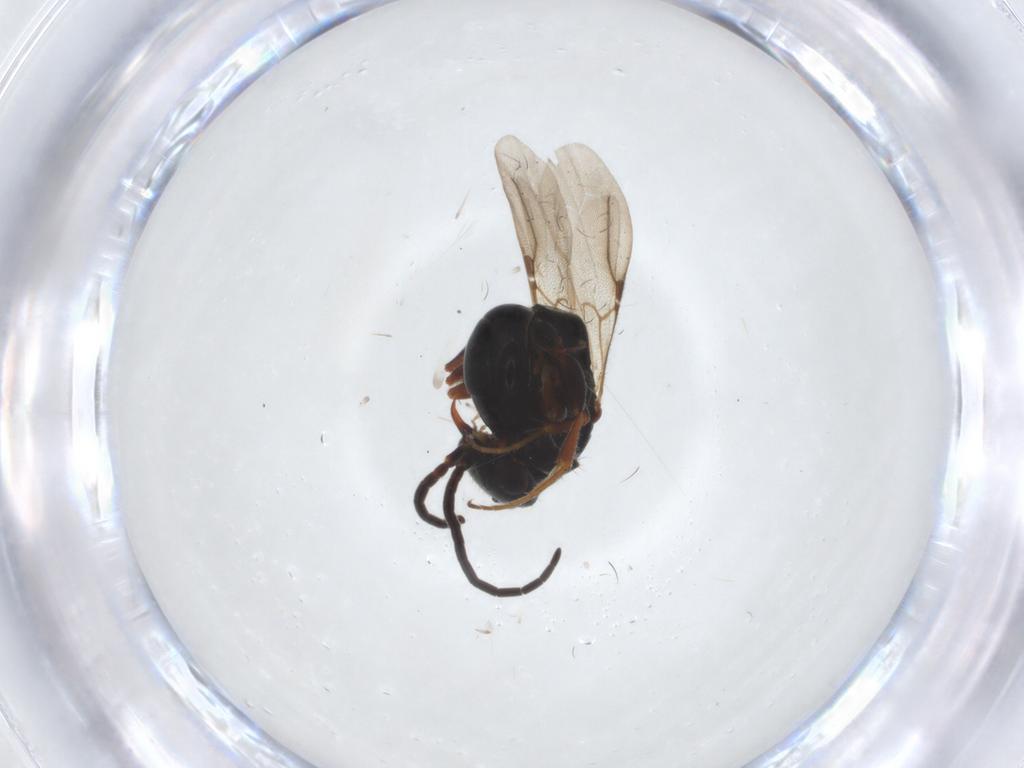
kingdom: Animalia
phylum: Arthropoda
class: Insecta
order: Hymenoptera
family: Bethylidae
